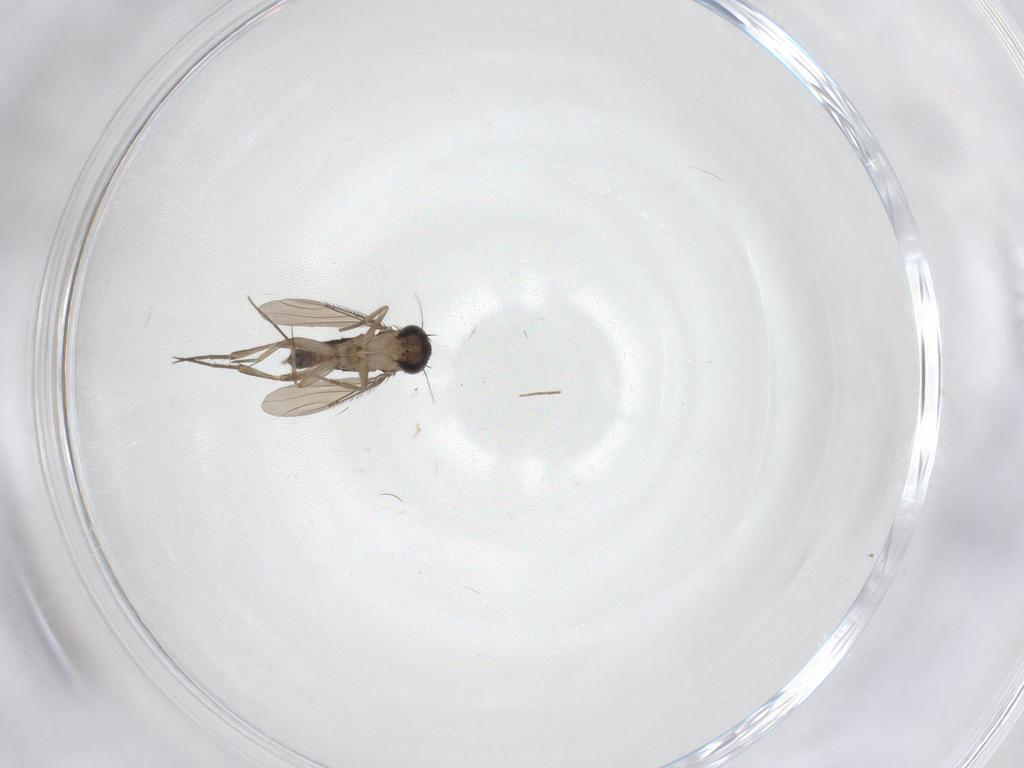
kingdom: Animalia
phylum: Arthropoda
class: Insecta
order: Diptera
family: Phoridae
